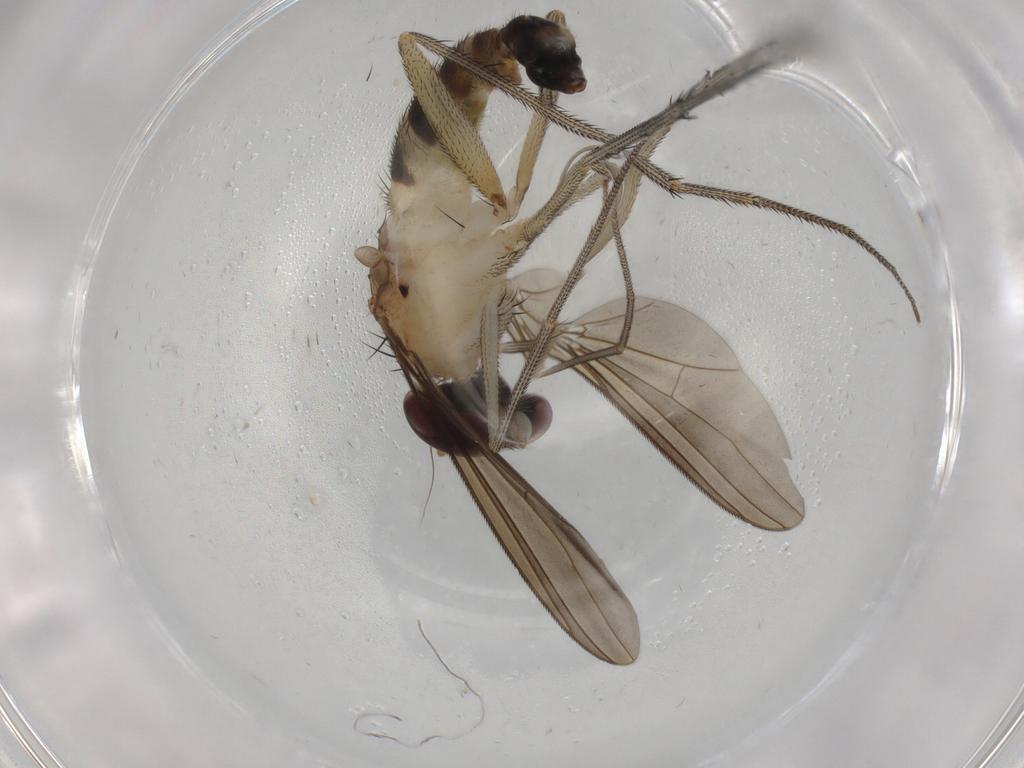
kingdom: Animalia
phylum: Arthropoda
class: Insecta
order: Diptera
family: Dolichopodidae
